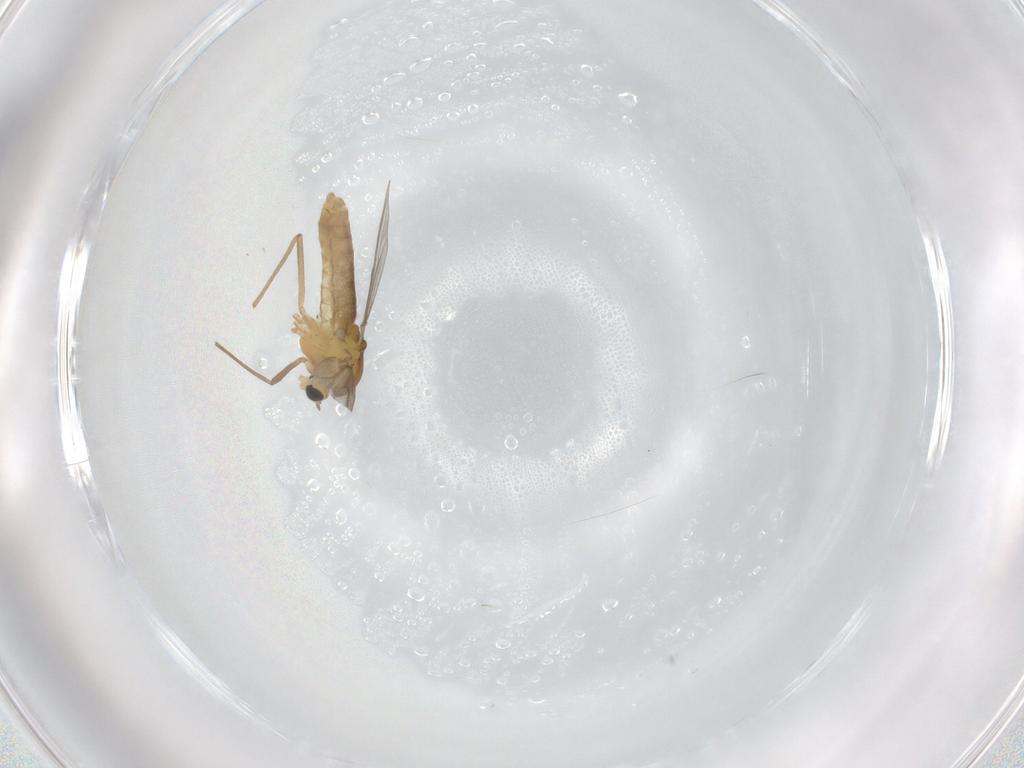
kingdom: Animalia
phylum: Arthropoda
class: Insecta
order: Diptera
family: Chironomidae
